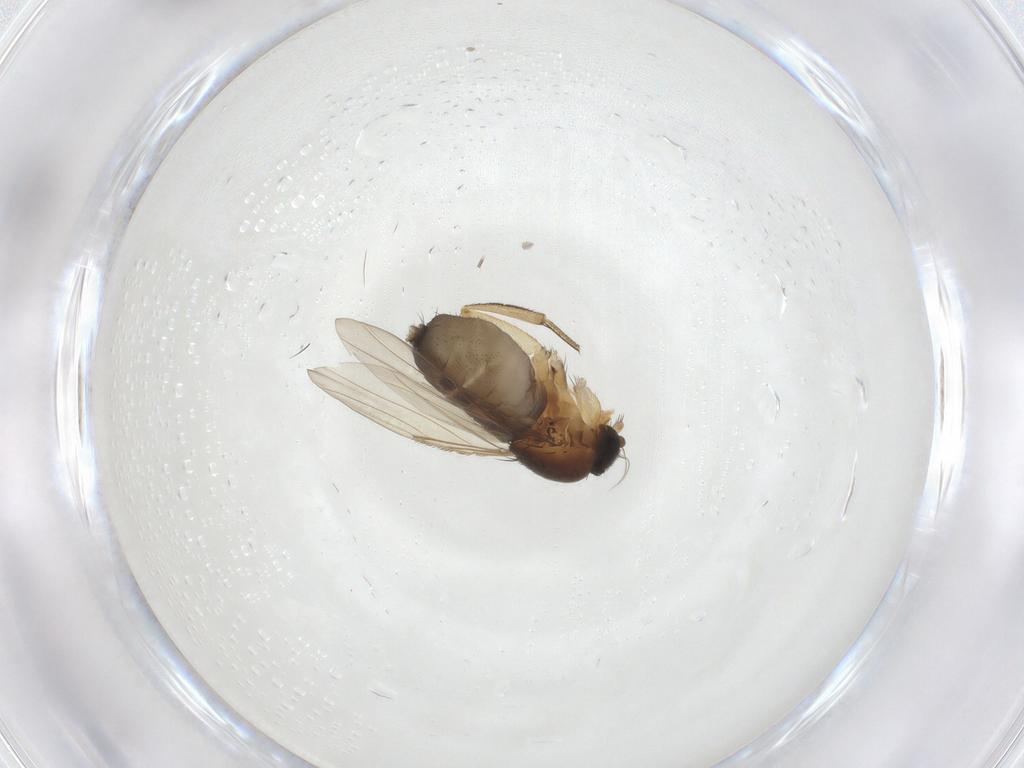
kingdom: Animalia
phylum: Arthropoda
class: Insecta
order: Diptera
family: Phoridae
